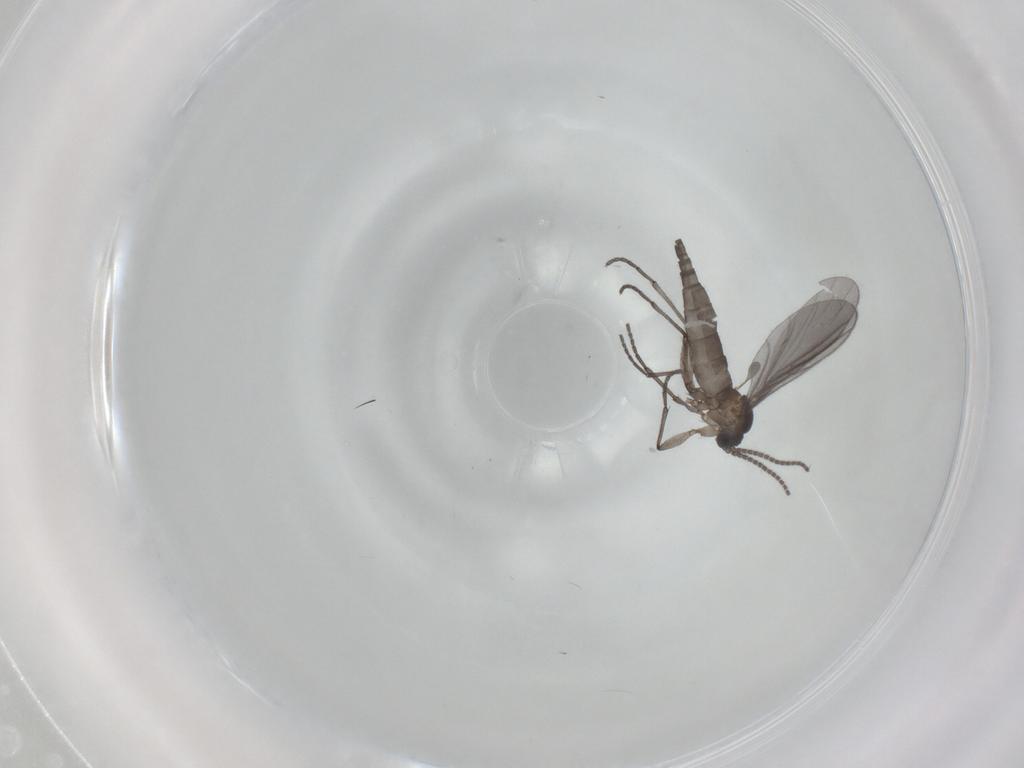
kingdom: Animalia
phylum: Arthropoda
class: Insecta
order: Diptera
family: Sciaridae
